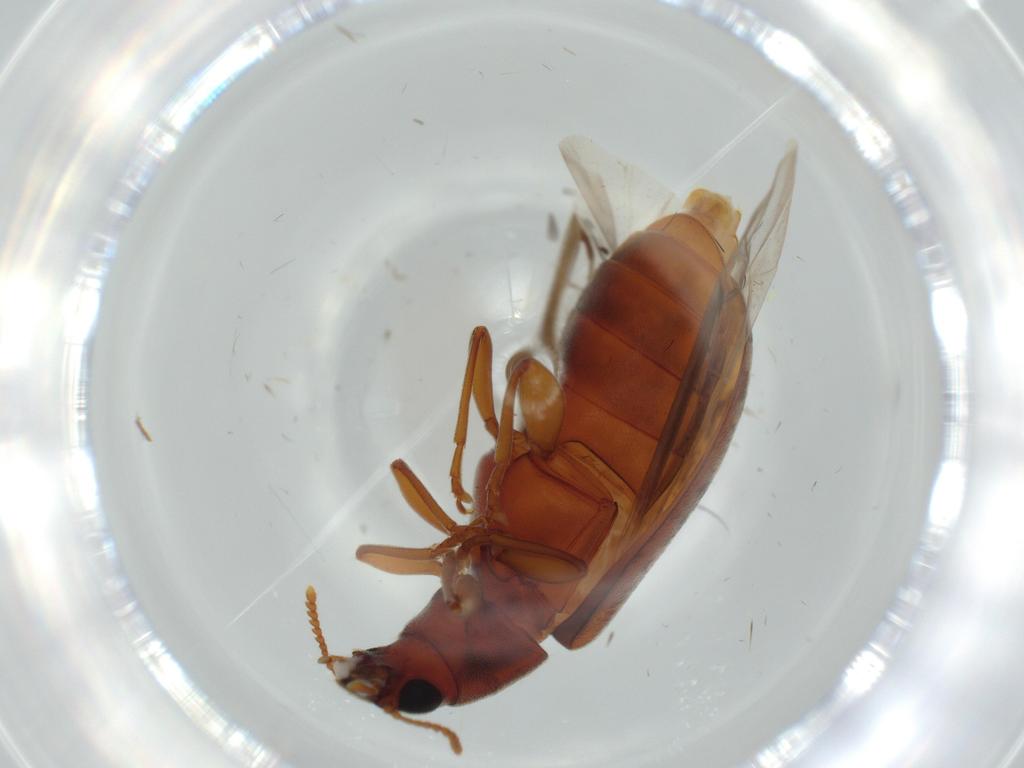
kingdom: Animalia
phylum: Arthropoda
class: Insecta
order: Coleoptera
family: Mycteridae
